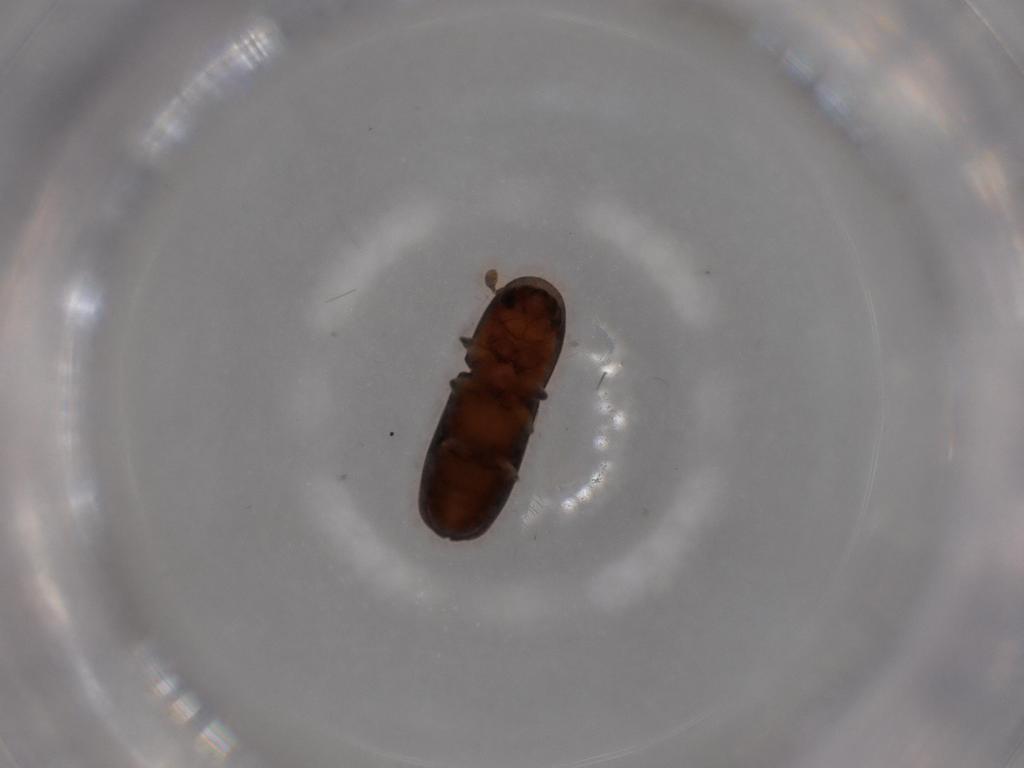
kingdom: Animalia
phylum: Arthropoda
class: Insecta
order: Coleoptera
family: Curculionidae
